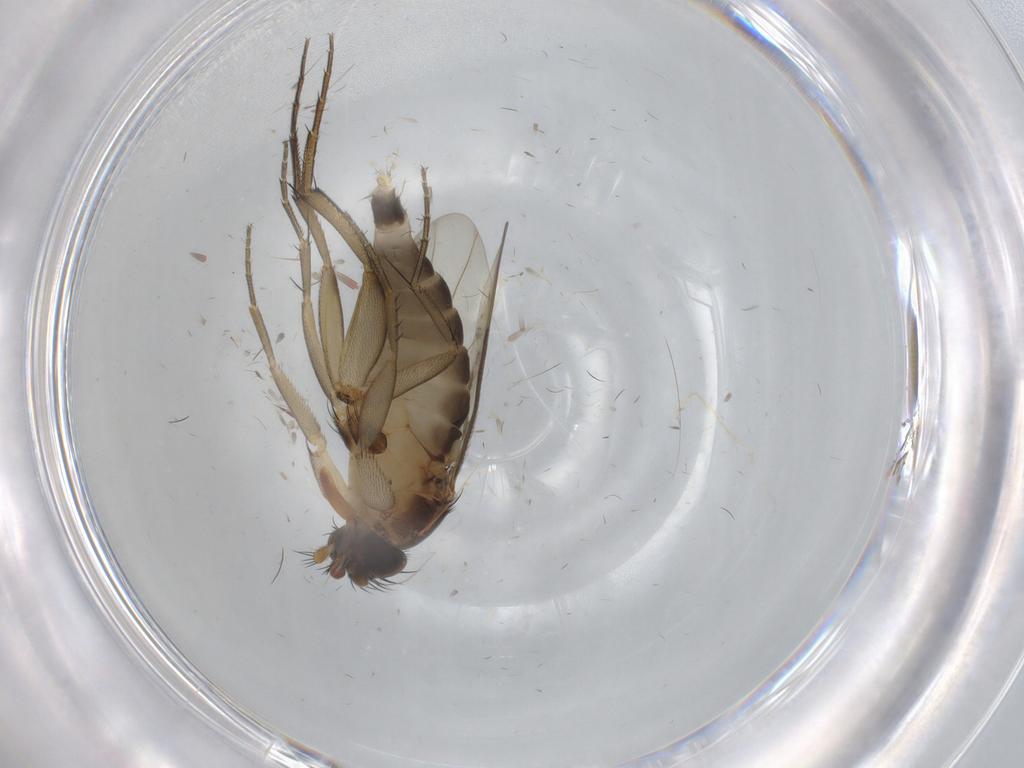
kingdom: Animalia
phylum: Arthropoda
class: Insecta
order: Diptera
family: Phoridae
